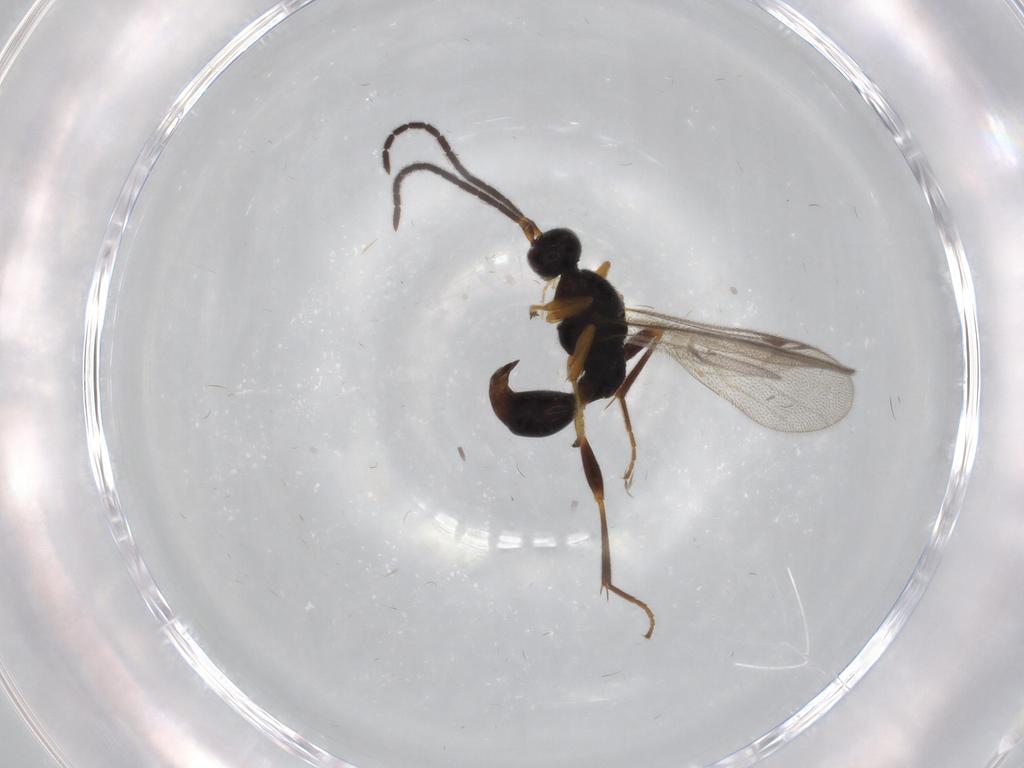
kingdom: Animalia
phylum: Arthropoda
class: Insecta
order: Hymenoptera
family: Proctotrupidae
